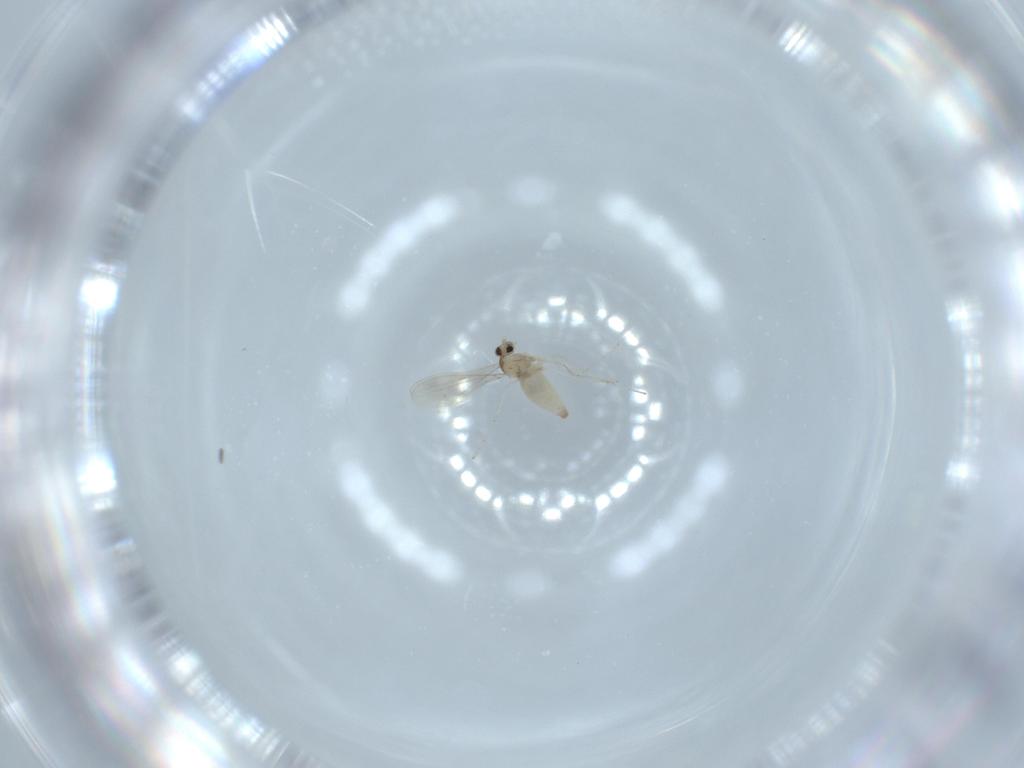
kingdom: Animalia
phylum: Arthropoda
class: Insecta
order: Diptera
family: Cecidomyiidae
